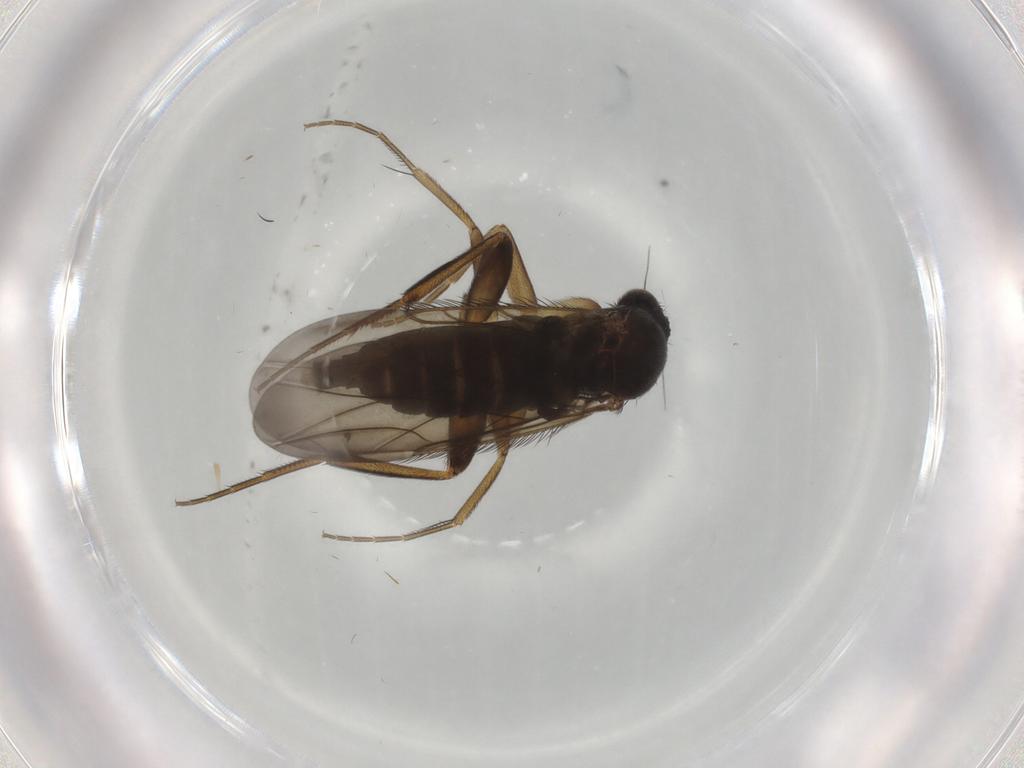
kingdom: Animalia
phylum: Arthropoda
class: Insecta
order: Diptera
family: Phoridae
